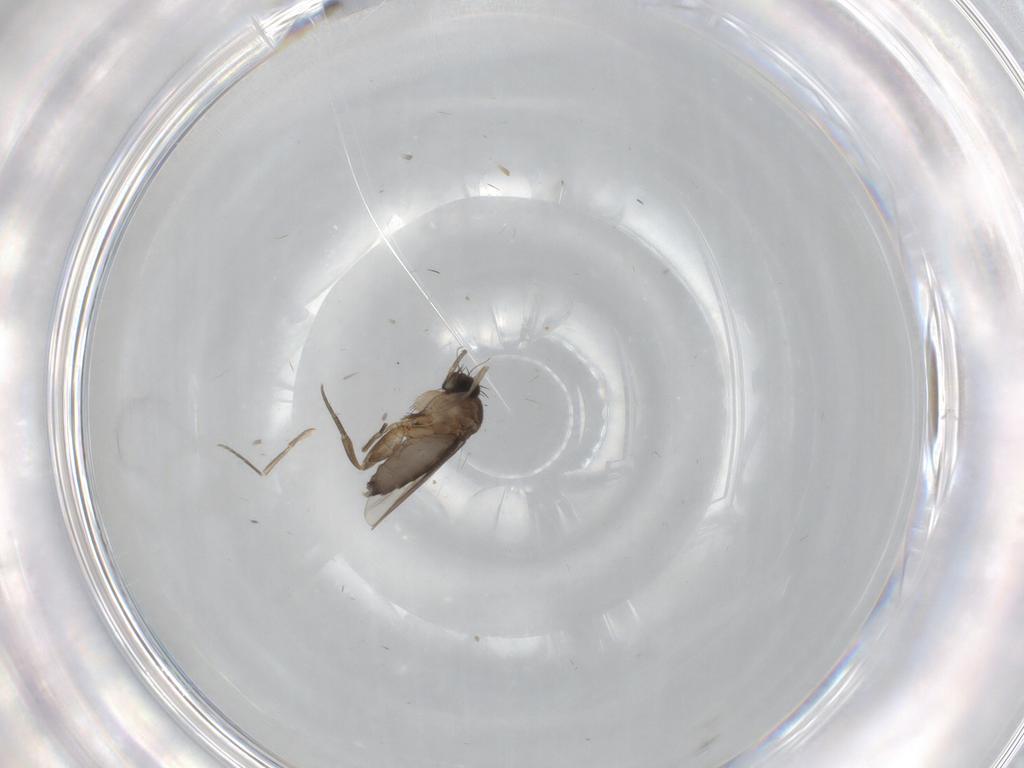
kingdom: Animalia
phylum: Arthropoda
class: Insecta
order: Diptera
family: Phoridae
